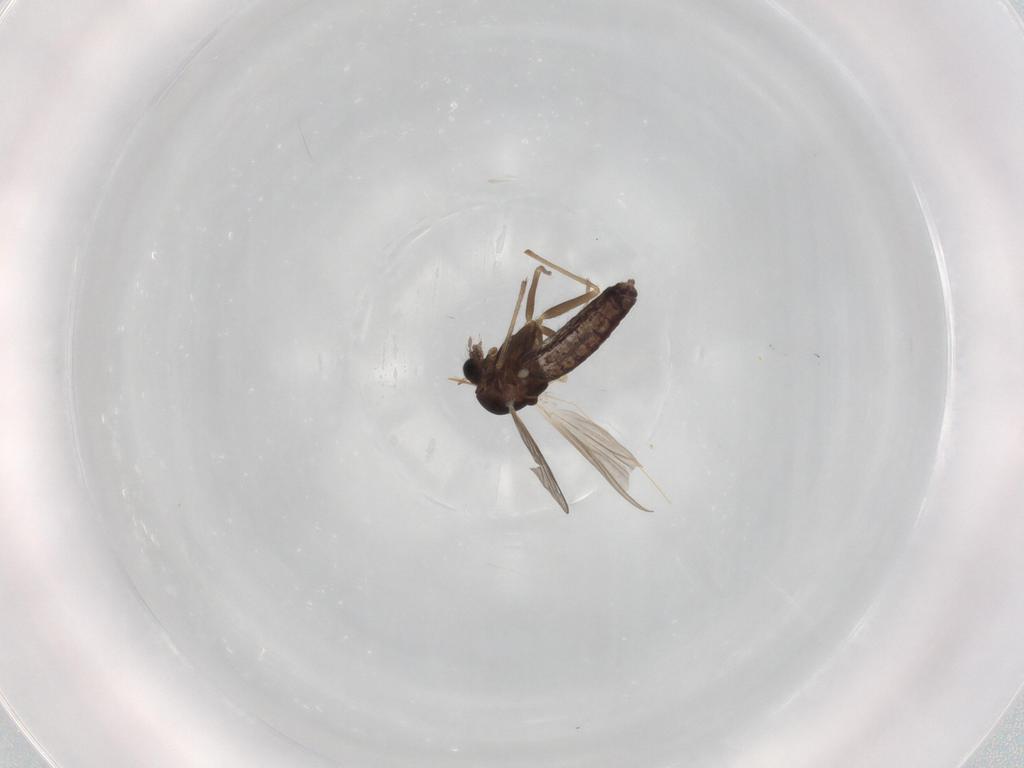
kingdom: Animalia
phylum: Arthropoda
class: Insecta
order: Diptera
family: Chironomidae
